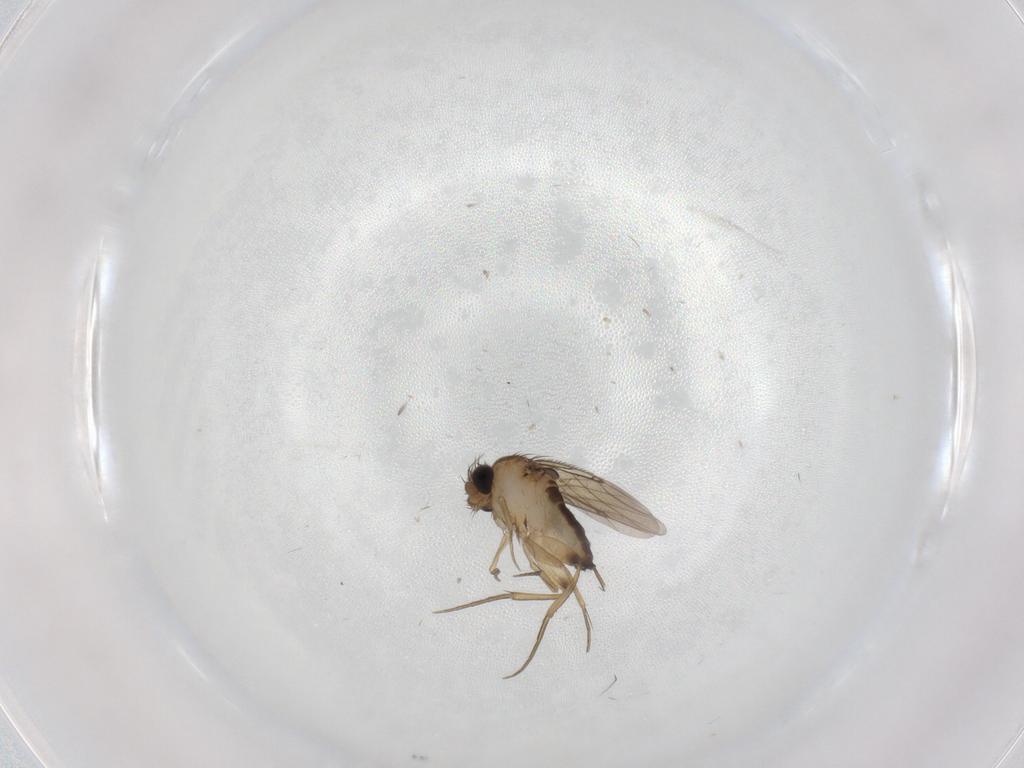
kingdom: Animalia
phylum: Arthropoda
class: Insecta
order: Diptera
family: Phoridae
